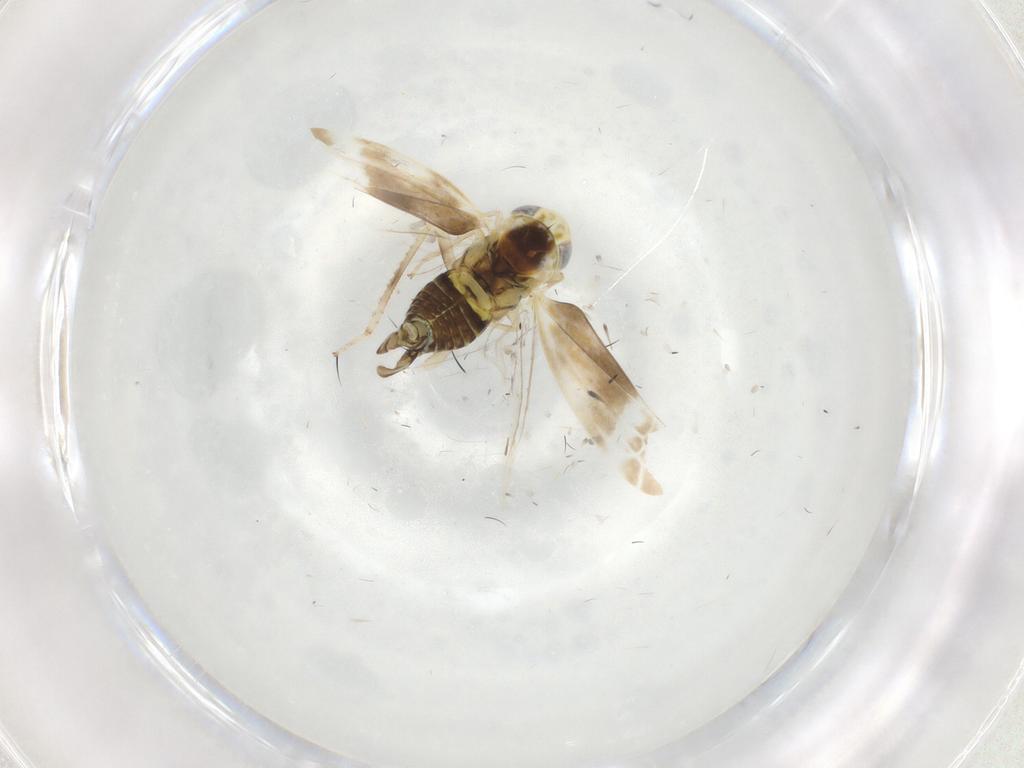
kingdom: Animalia
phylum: Arthropoda
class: Insecta
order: Hemiptera
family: Cicadellidae
